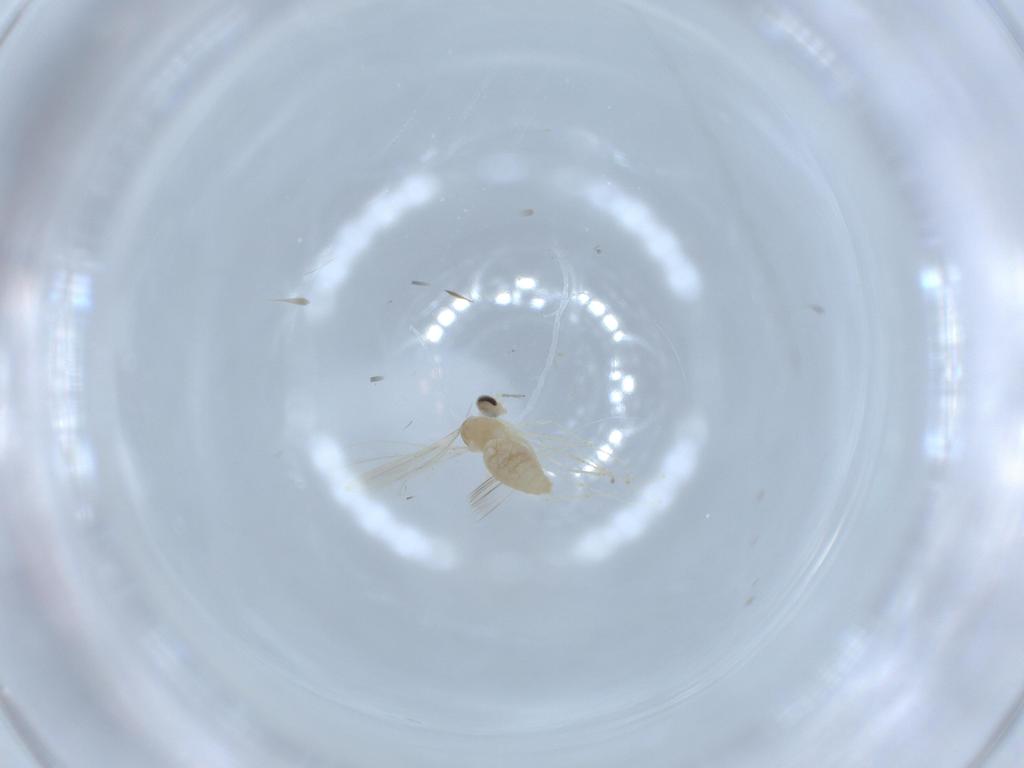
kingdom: Animalia
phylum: Arthropoda
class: Insecta
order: Diptera
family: Cecidomyiidae
